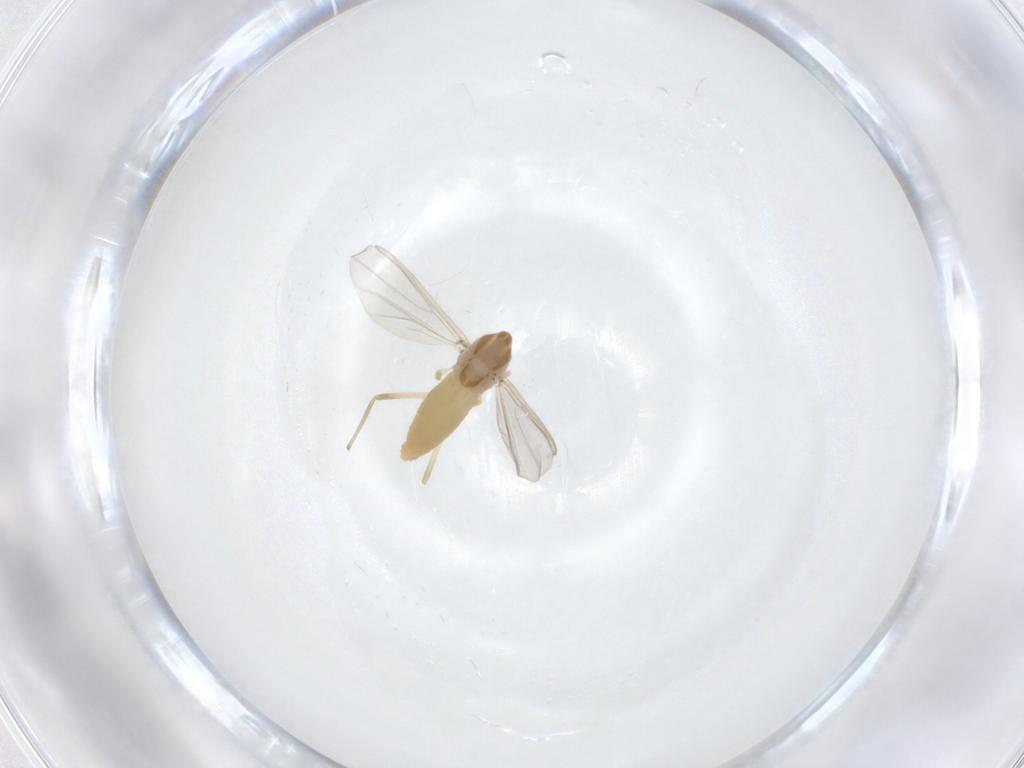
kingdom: Animalia
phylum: Arthropoda
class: Insecta
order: Diptera
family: Chironomidae
